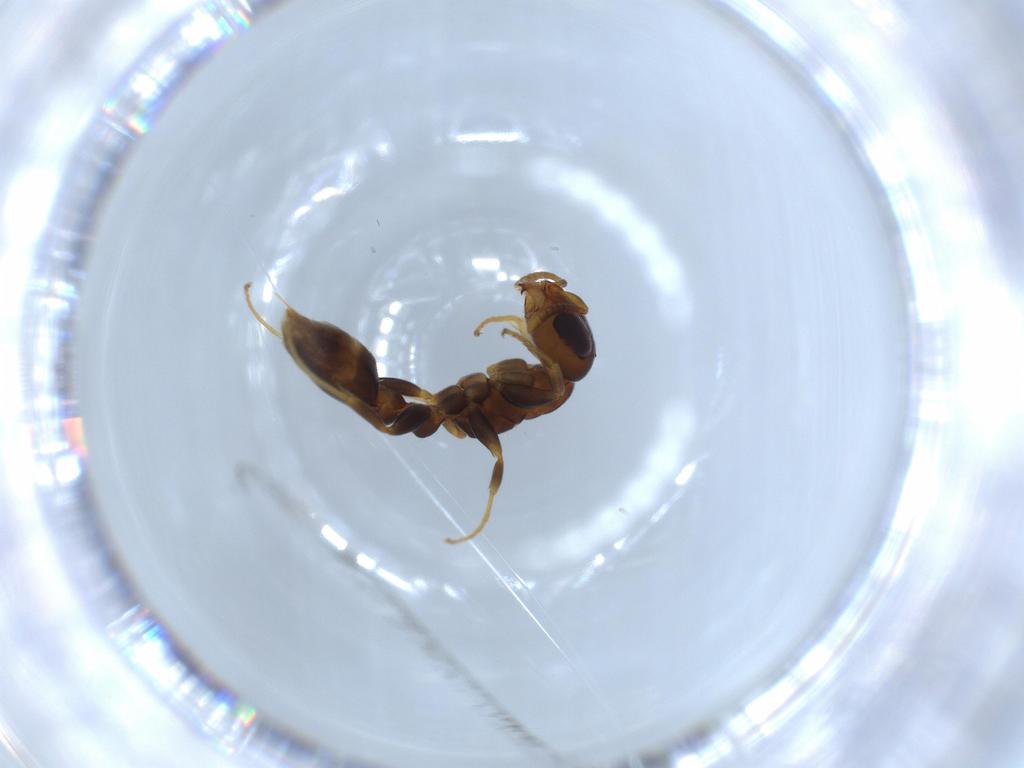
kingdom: Animalia
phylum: Arthropoda
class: Insecta
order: Hymenoptera
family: Formicidae
